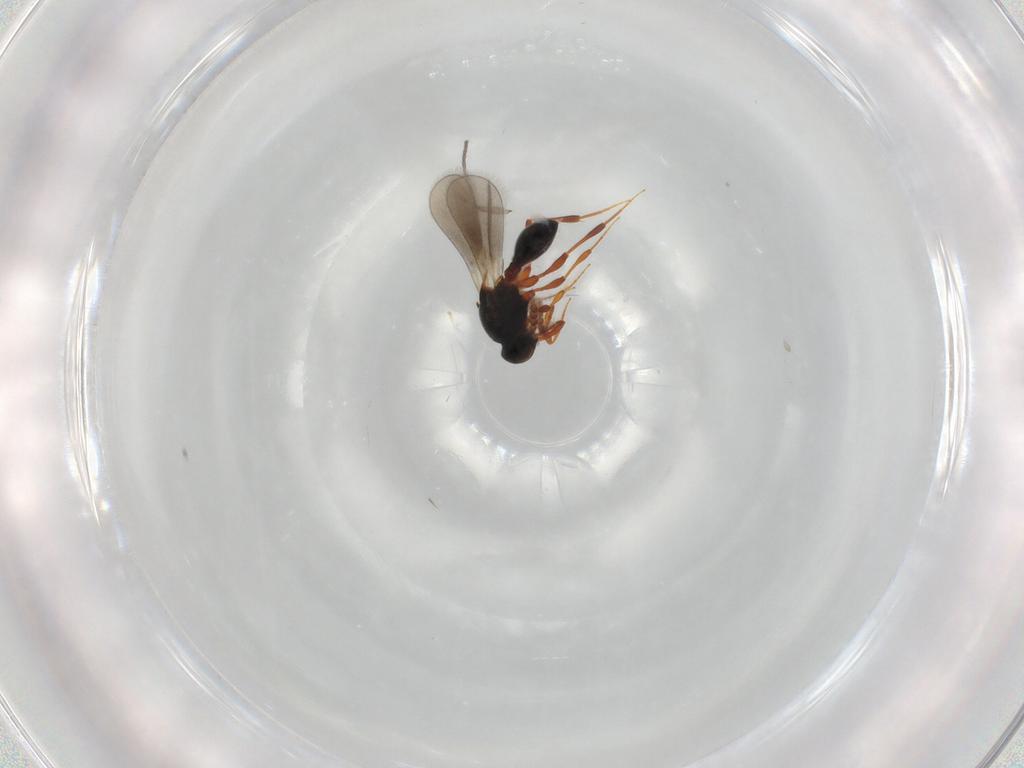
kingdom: Animalia
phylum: Arthropoda
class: Insecta
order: Hymenoptera
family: Platygastridae
